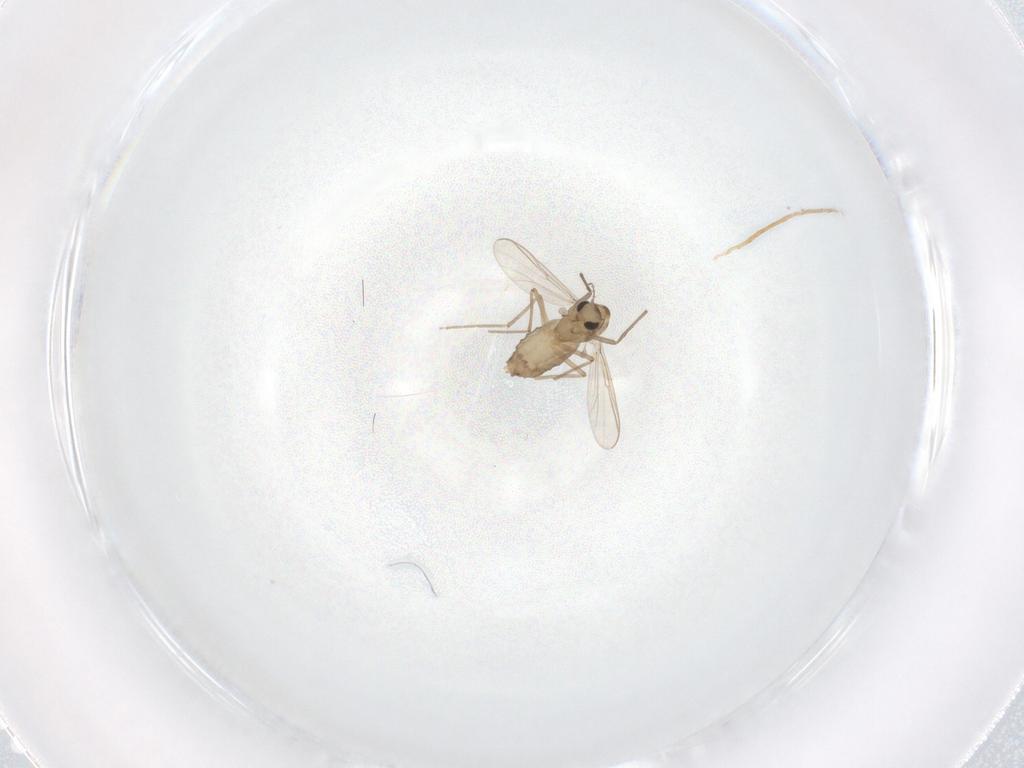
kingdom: Animalia
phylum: Arthropoda
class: Insecta
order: Diptera
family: Chironomidae
